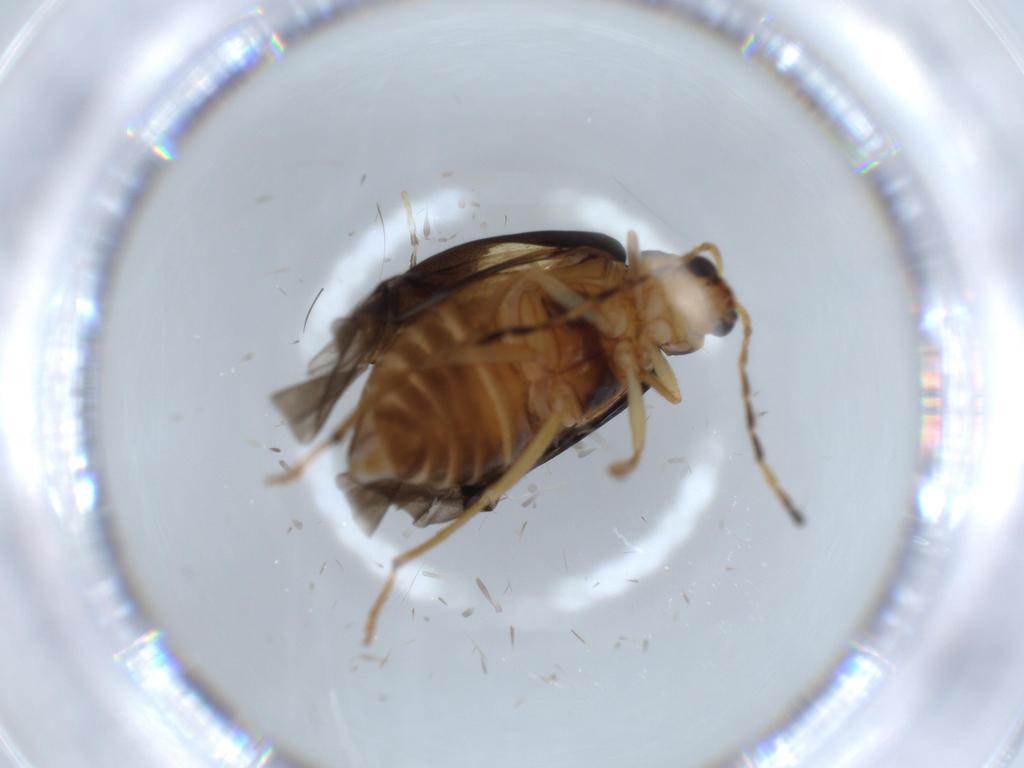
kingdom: Animalia
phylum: Arthropoda
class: Insecta
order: Coleoptera
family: Chrysomelidae
